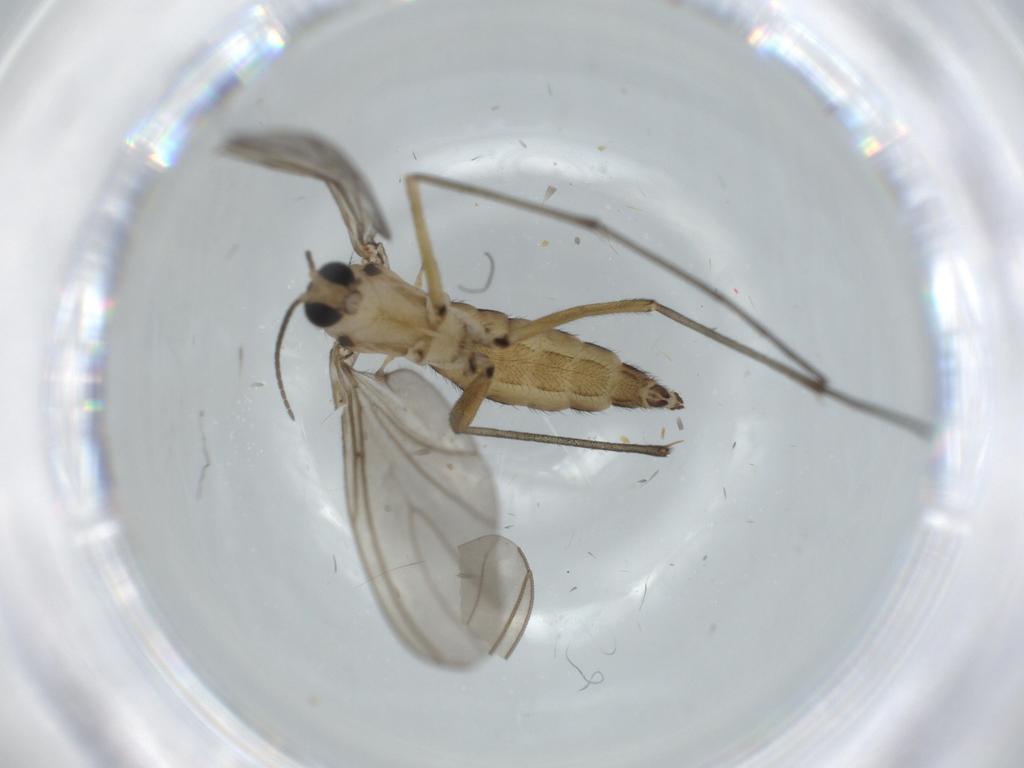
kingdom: Animalia
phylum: Arthropoda
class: Insecta
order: Diptera
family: Sciaridae
